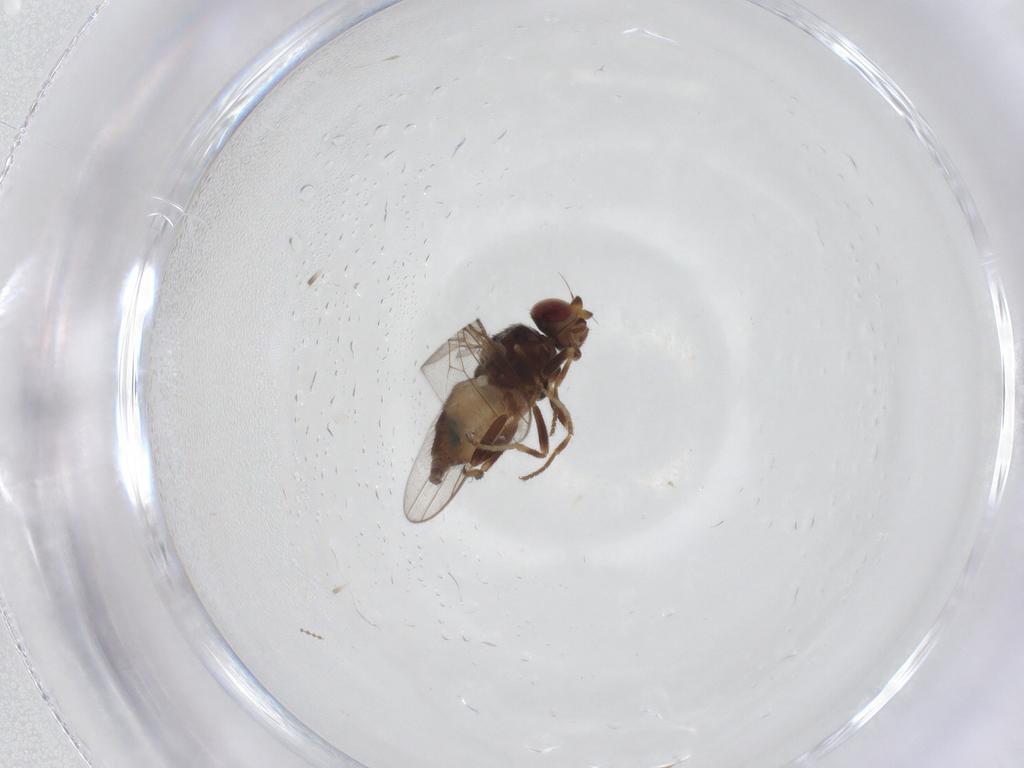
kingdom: Animalia
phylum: Arthropoda
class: Insecta
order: Diptera
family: Chloropidae
